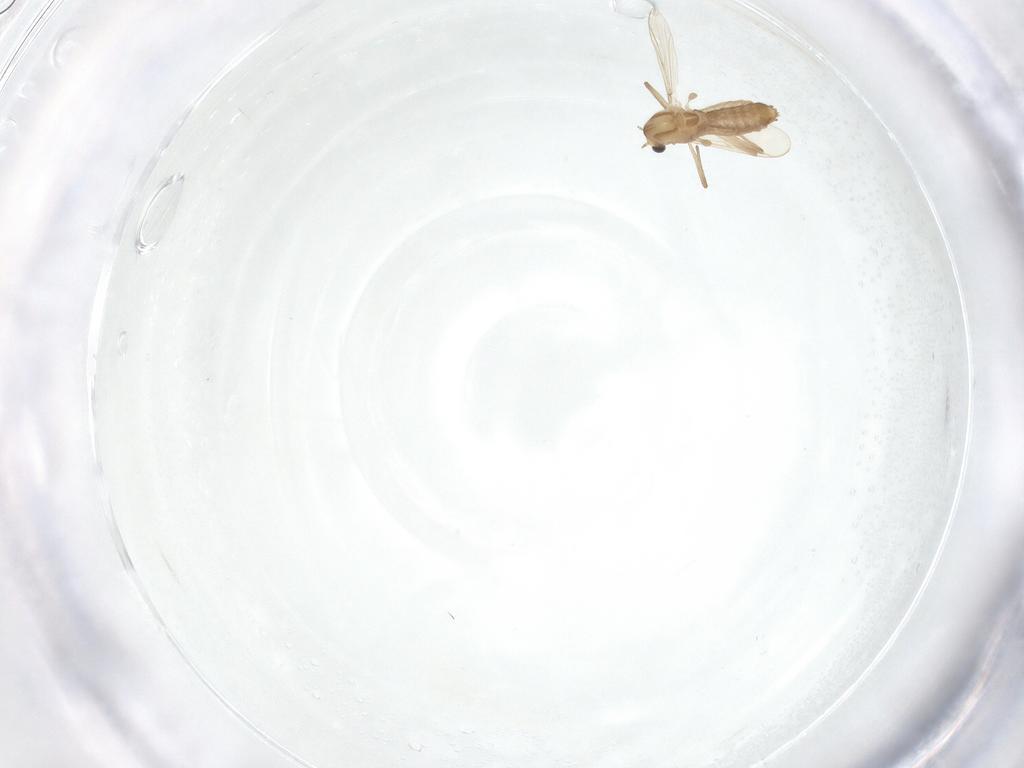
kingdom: Animalia
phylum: Arthropoda
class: Insecta
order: Diptera
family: Chironomidae
